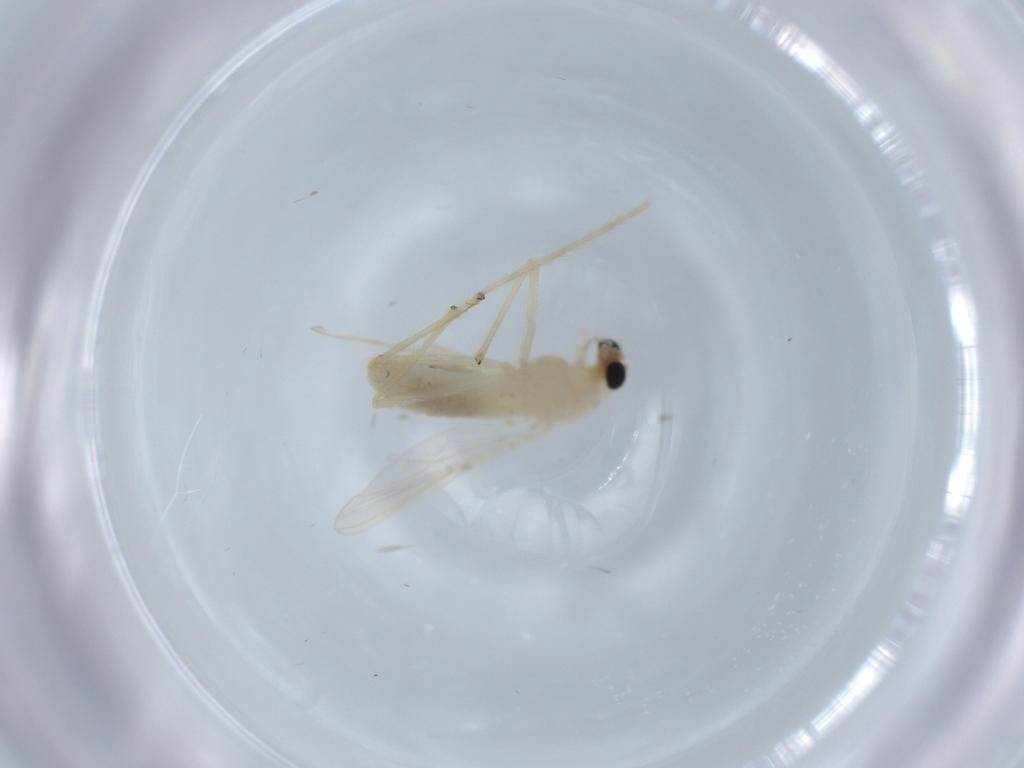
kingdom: Animalia
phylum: Arthropoda
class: Insecta
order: Diptera
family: Chironomidae
